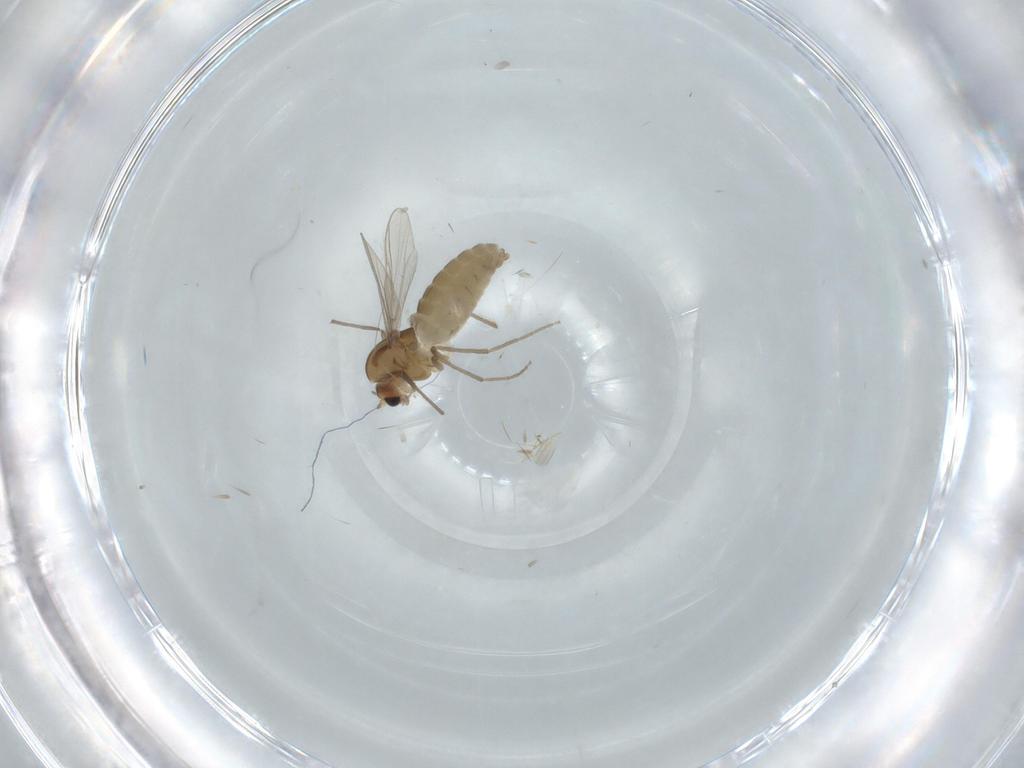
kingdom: Animalia
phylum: Arthropoda
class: Insecta
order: Diptera
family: Chironomidae
